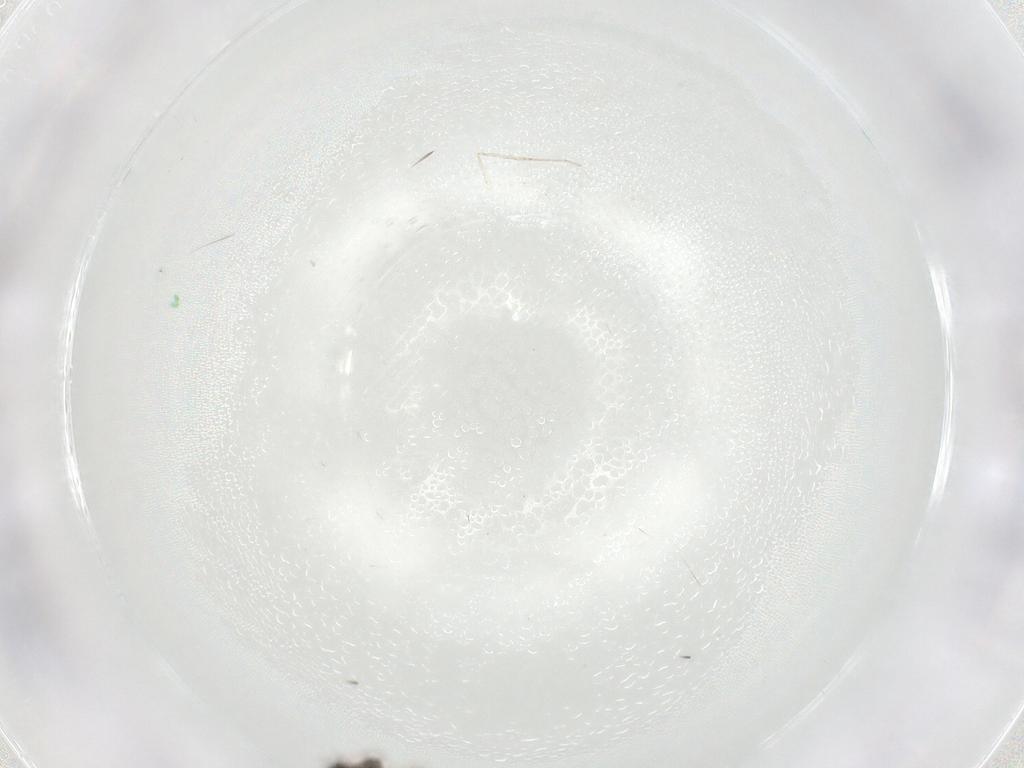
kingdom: Animalia
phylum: Arthropoda
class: Insecta
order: Thysanoptera
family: Aeolothripidae
